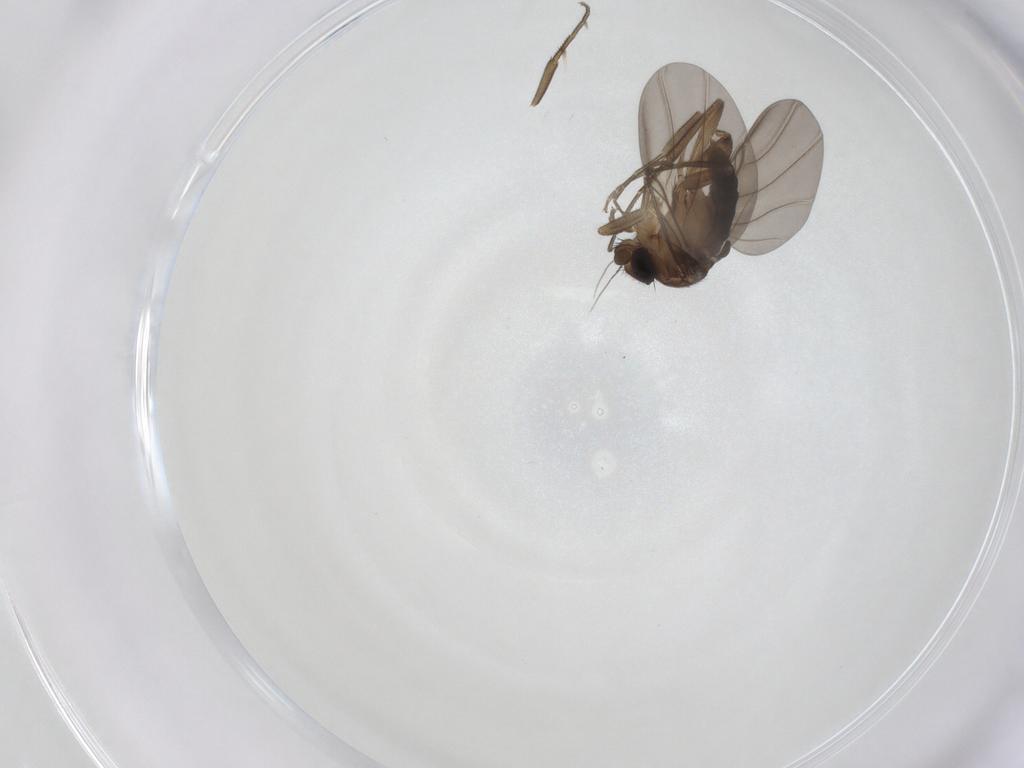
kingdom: Animalia
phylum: Arthropoda
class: Insecta
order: Diptera
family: Phoridae
